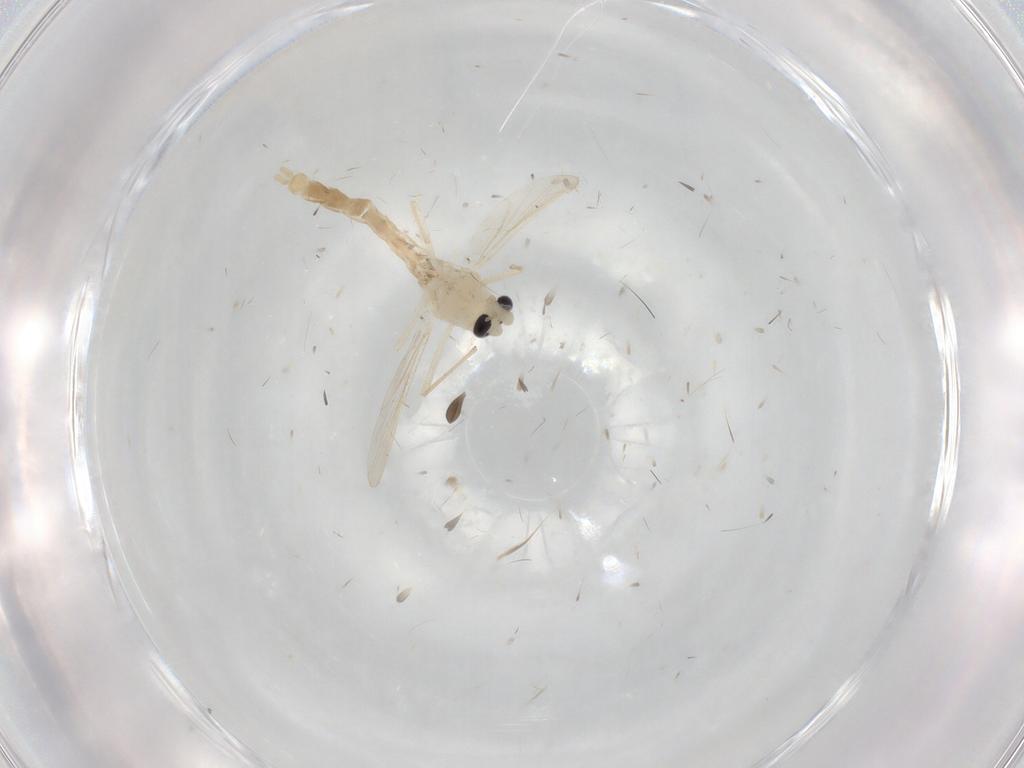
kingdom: Animalia
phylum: Arthropoda
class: Insecta
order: Diptera
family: Chironomidae
